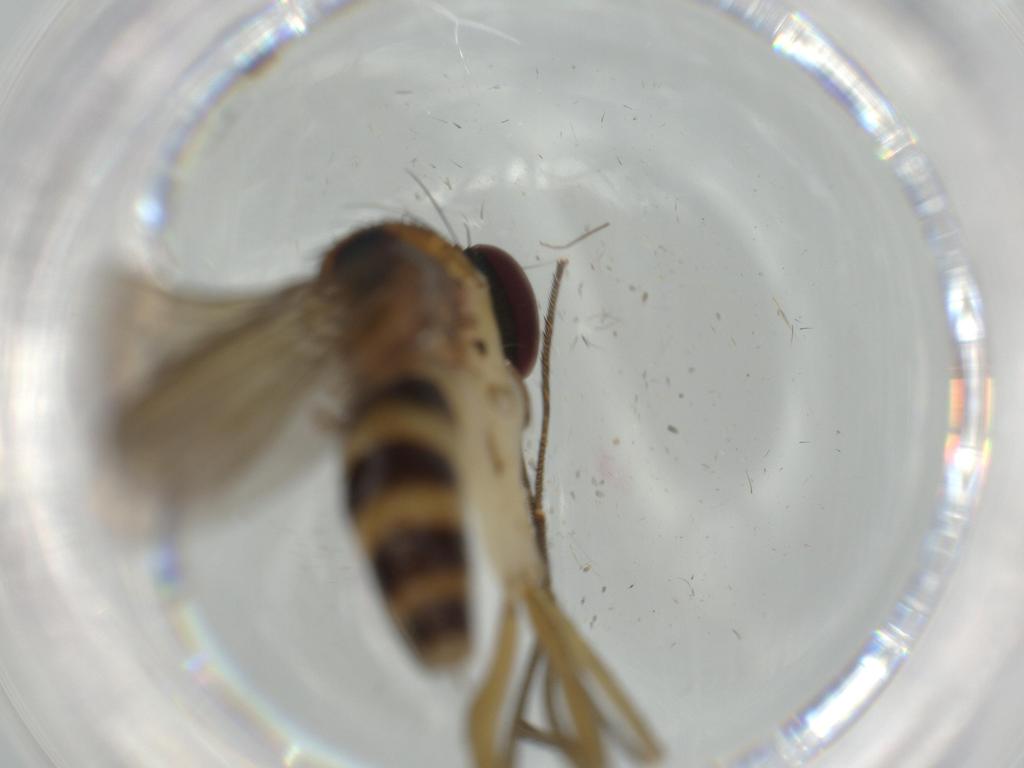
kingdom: Animalia
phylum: Arthropoda
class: Insecta
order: Diptera
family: Dolichopodidae
